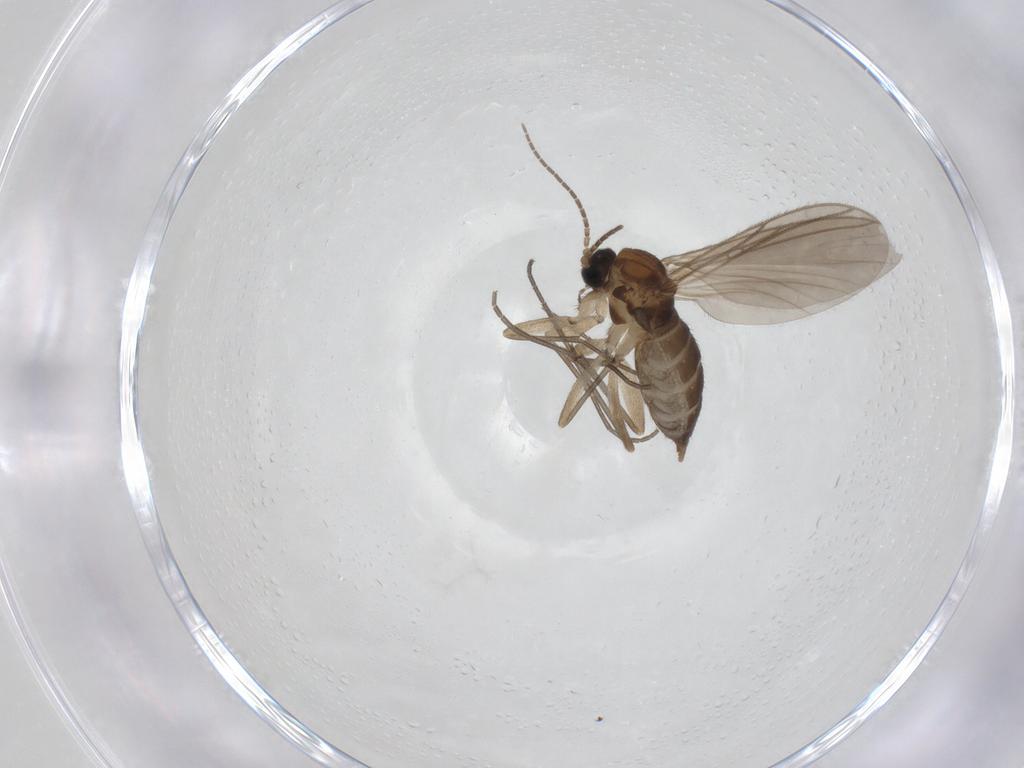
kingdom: Animalia
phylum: Arthropoda
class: Insecta
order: Diptera
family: Sciaridae
